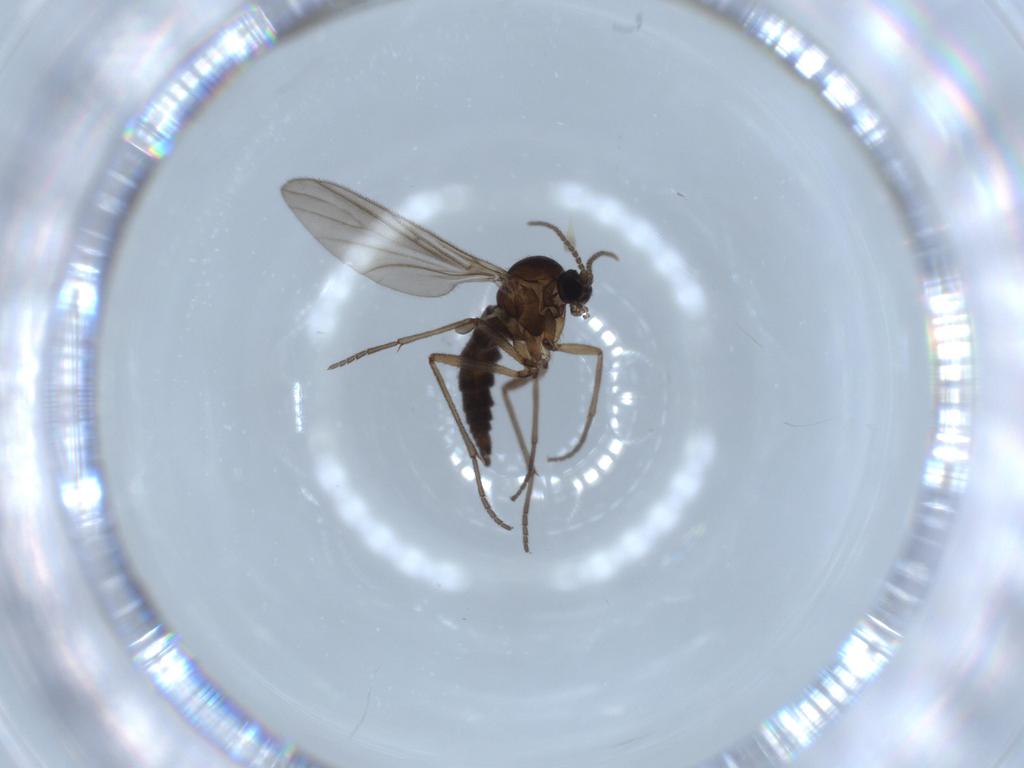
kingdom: Animalia
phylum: Arthropoda
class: Insecta
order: Diptera
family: Sciaridae
